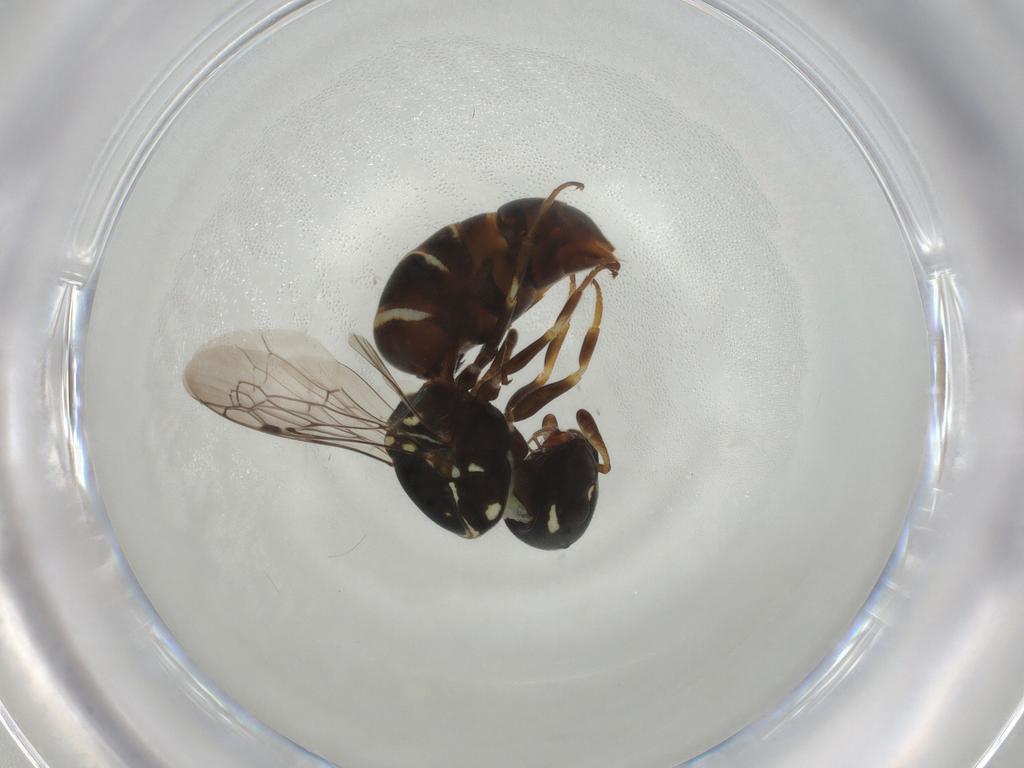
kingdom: Animalia
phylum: Arthropoda
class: Insecta
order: Hymenoptera
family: Vespidae
